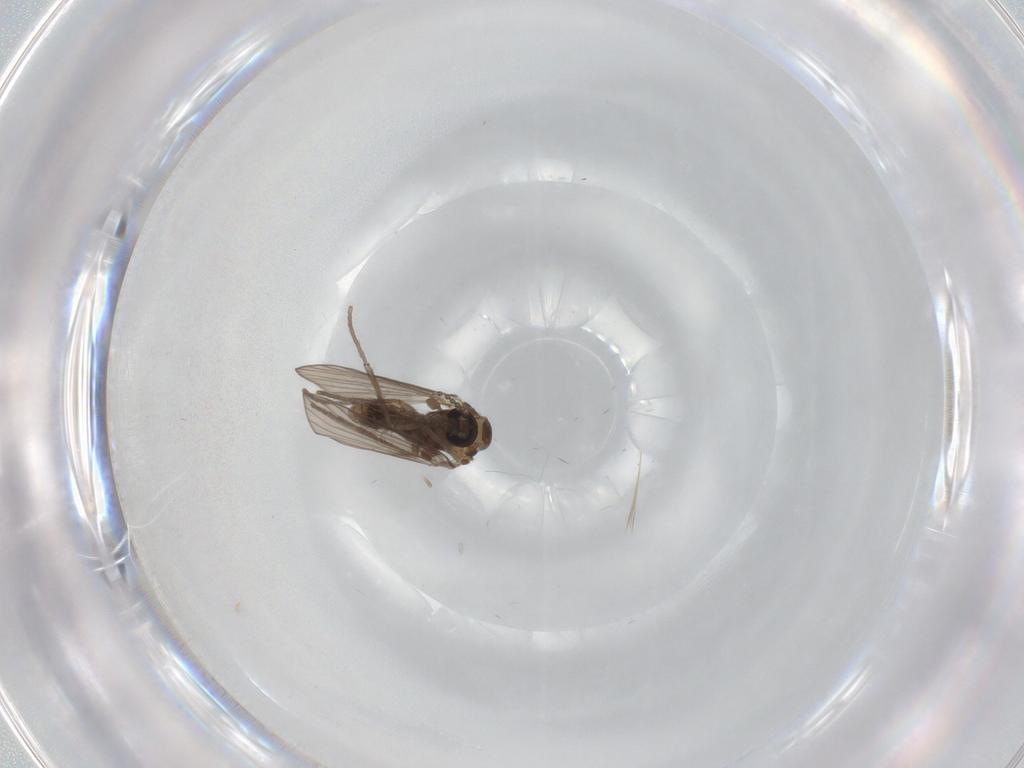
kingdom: Animalia
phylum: Arthropoda
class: Insecta
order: Diptera
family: Psychodidae
